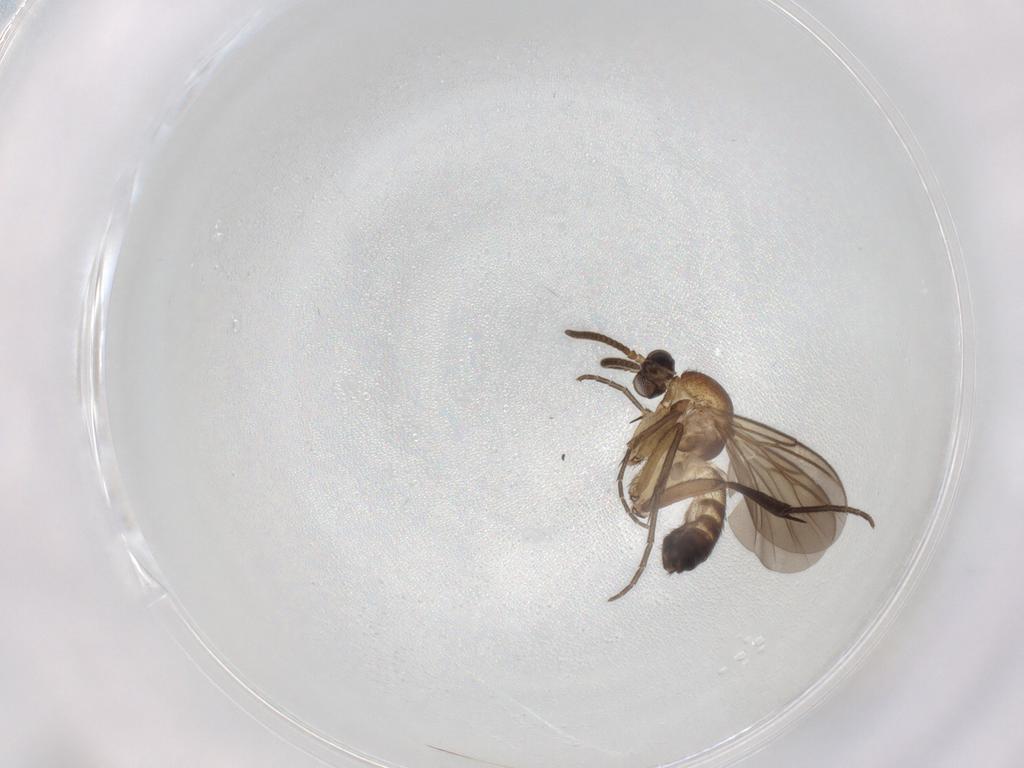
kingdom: Animalia
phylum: Arthropoda
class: Insecta
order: Diptera
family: Mycetophilidae
